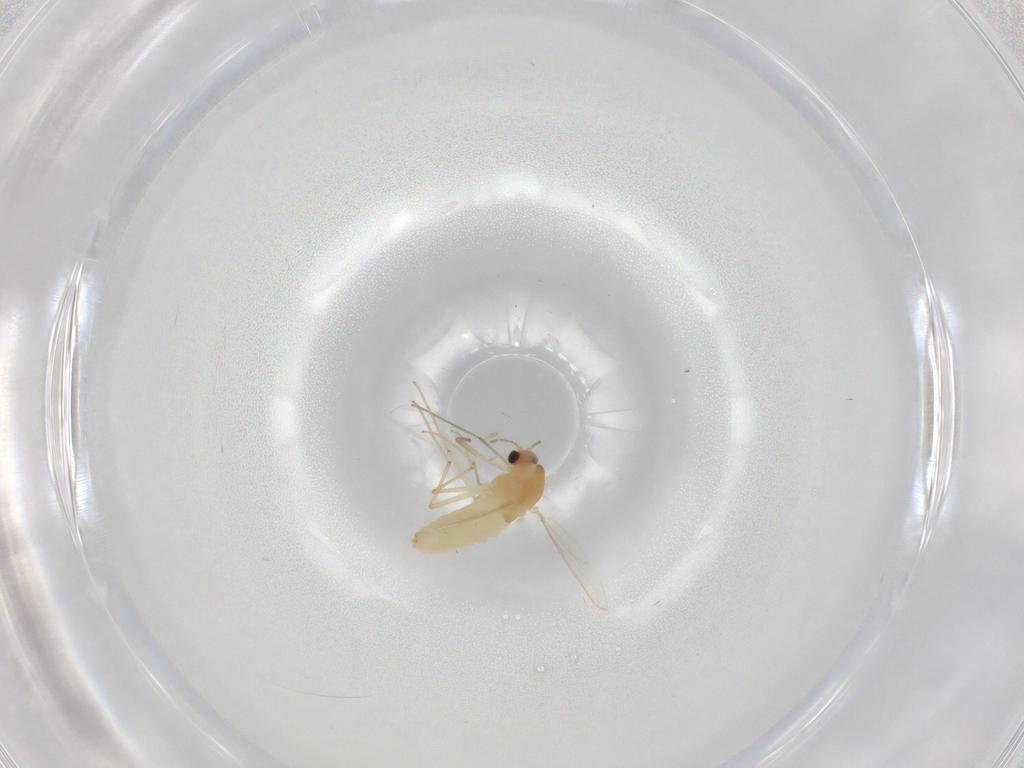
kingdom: Animalia
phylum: Arthropoda
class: Insecta
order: Diptera
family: Chironomidae
